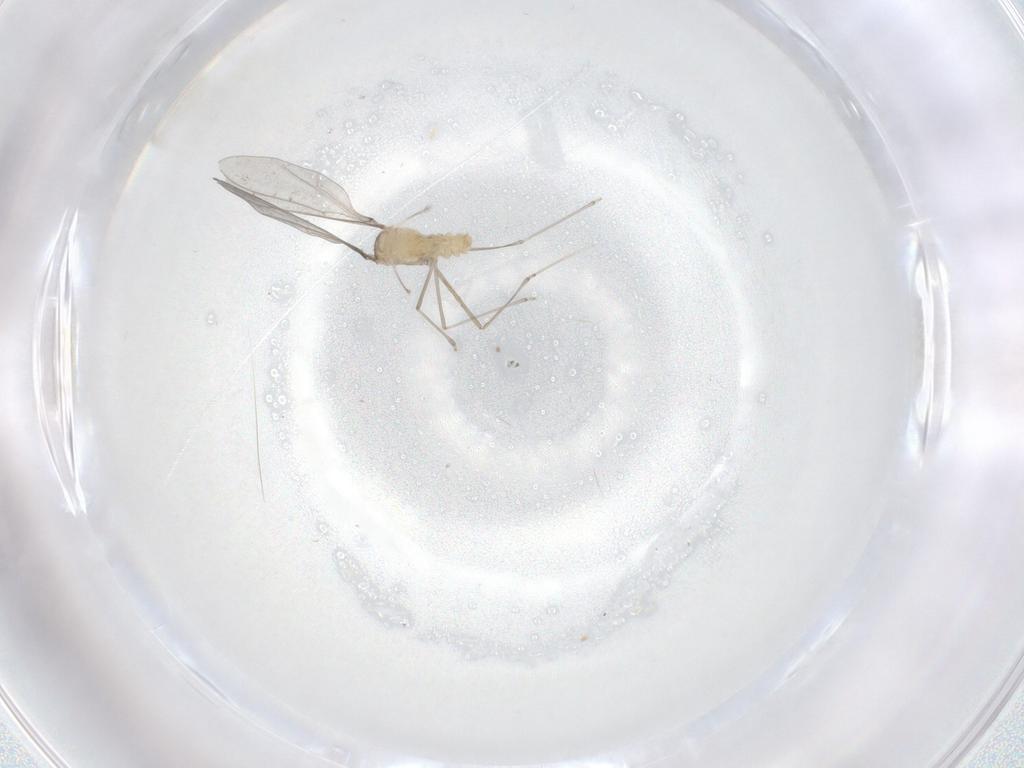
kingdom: Animalia
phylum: Arthropoda
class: Insecta
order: Diptera
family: Cecidomyiidae
